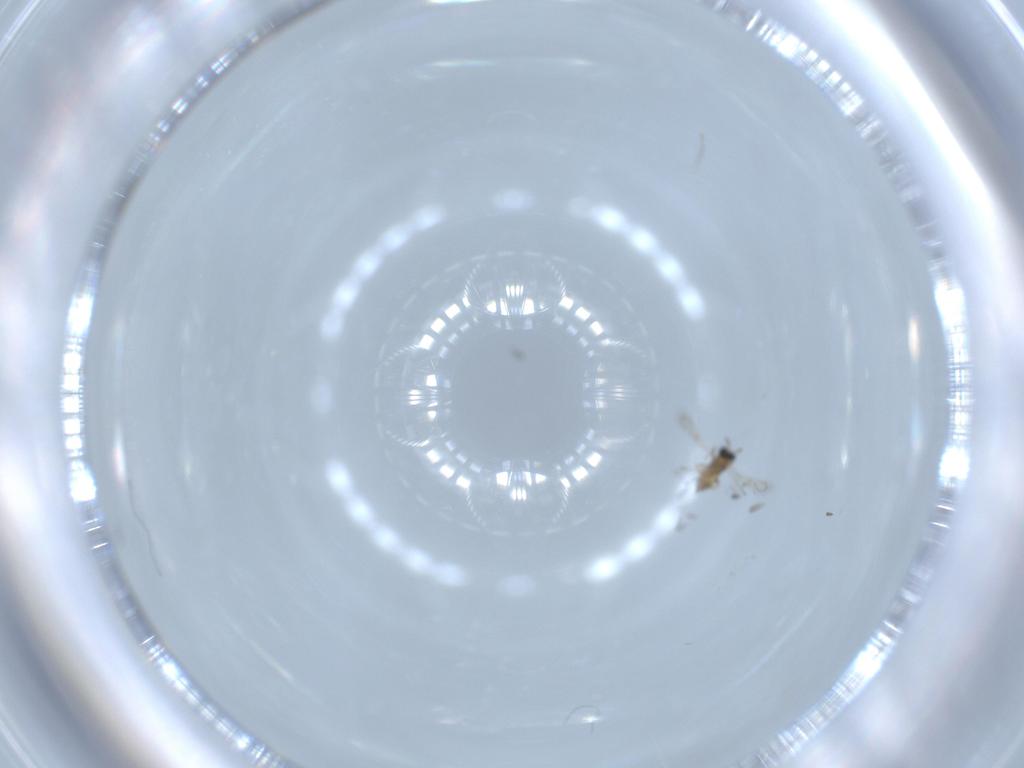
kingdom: Animalia
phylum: Arthropoda
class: Insecta
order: Hymenoptera
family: Trichogrammatidae
